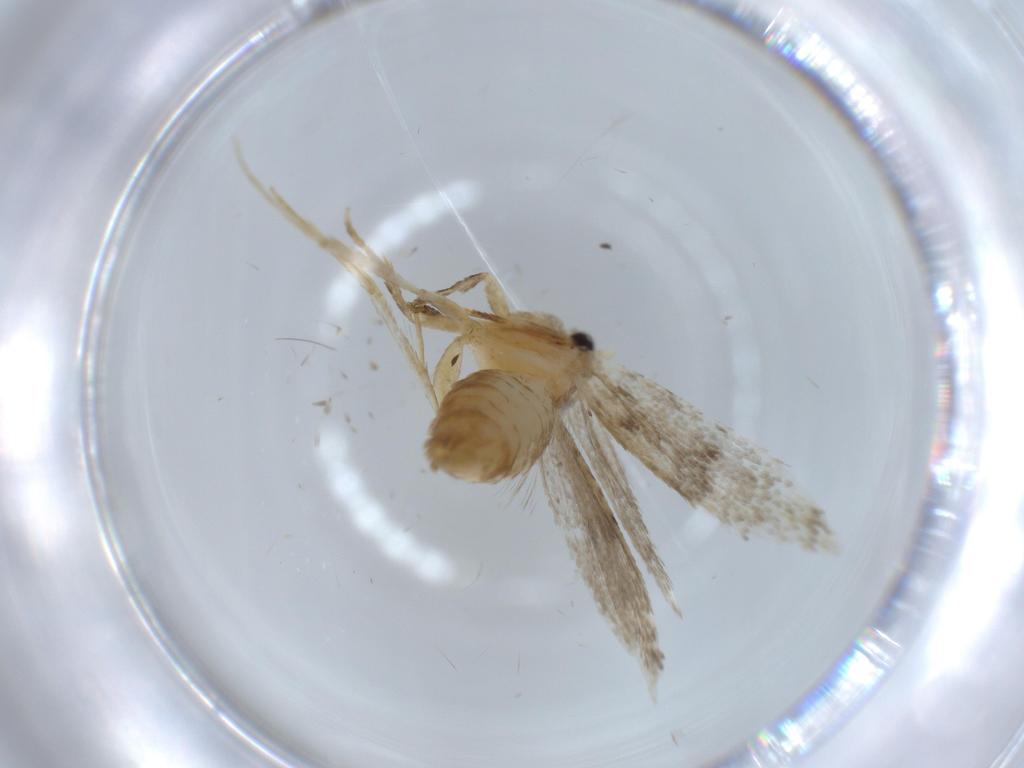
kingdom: Animalia
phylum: Arthropoda
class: Insecta
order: Lepidoptera
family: Tineidae
